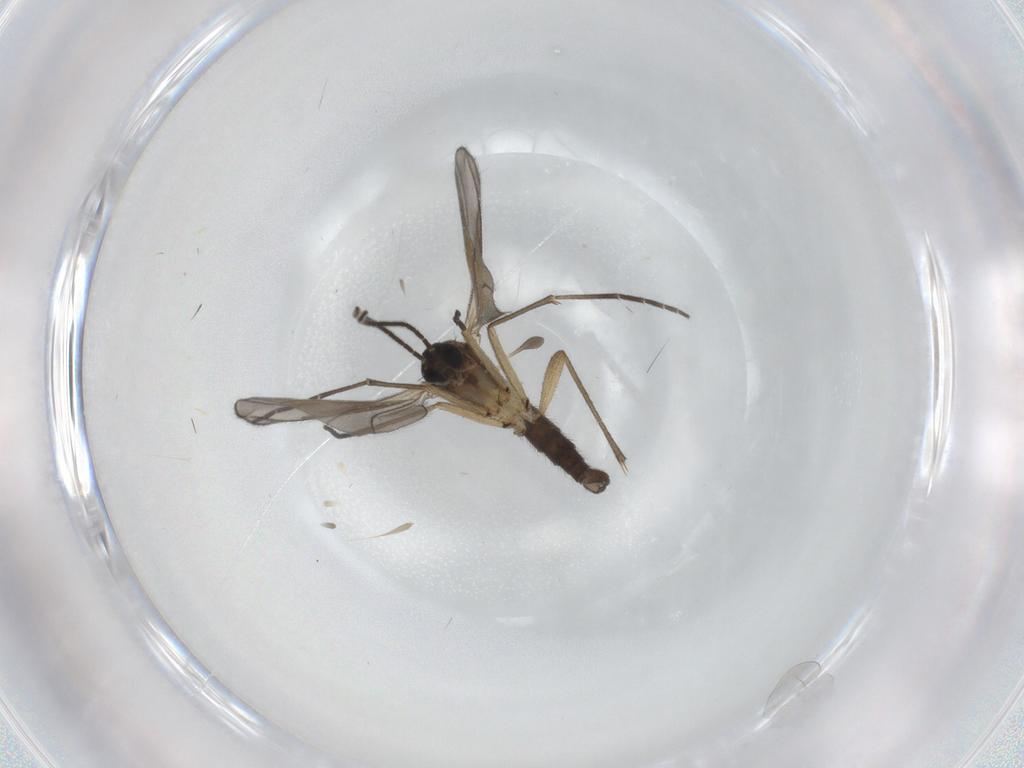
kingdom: Animalia
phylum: Arthropoda
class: Insecta
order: Diptera
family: Sciaridae
